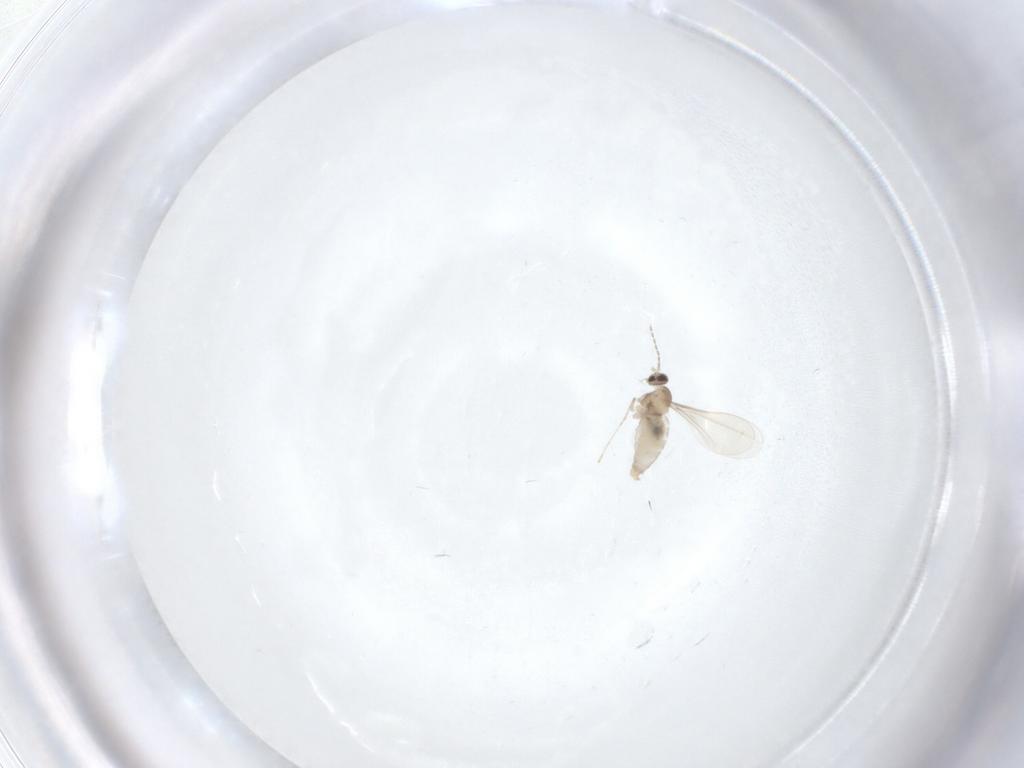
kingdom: Animalia
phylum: Arthropoda
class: Insecta
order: Diptera
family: Cecidomyiidae
